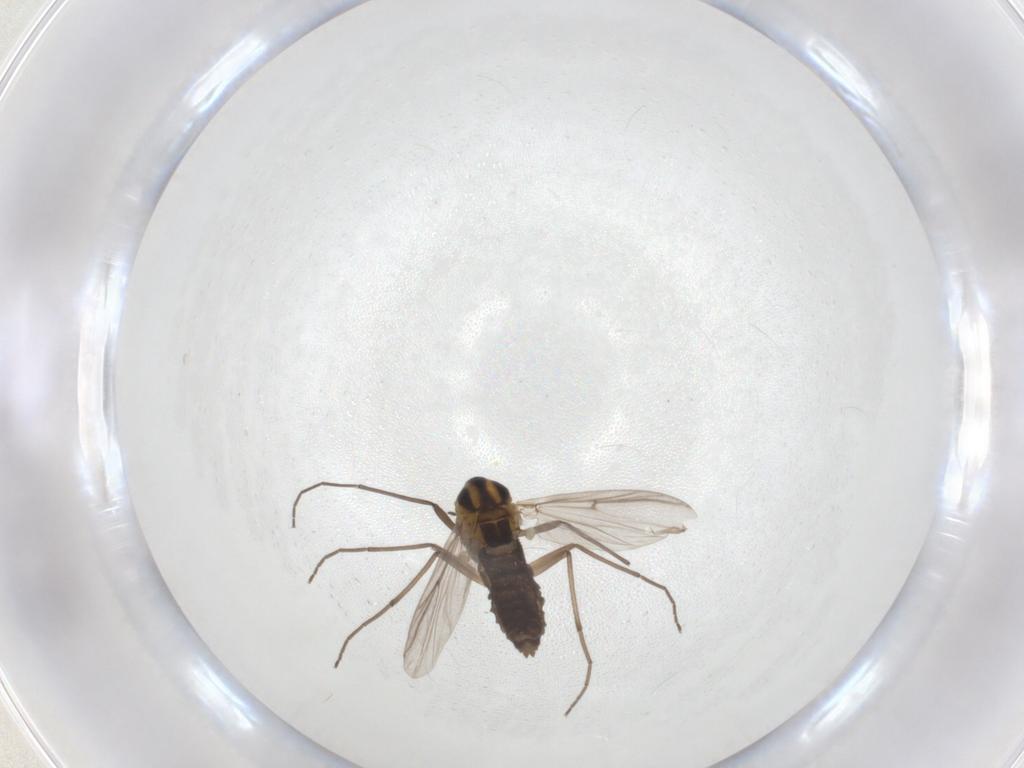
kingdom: Animalia
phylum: Arthropoda
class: Insecta
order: Diptera
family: Chironomidae
